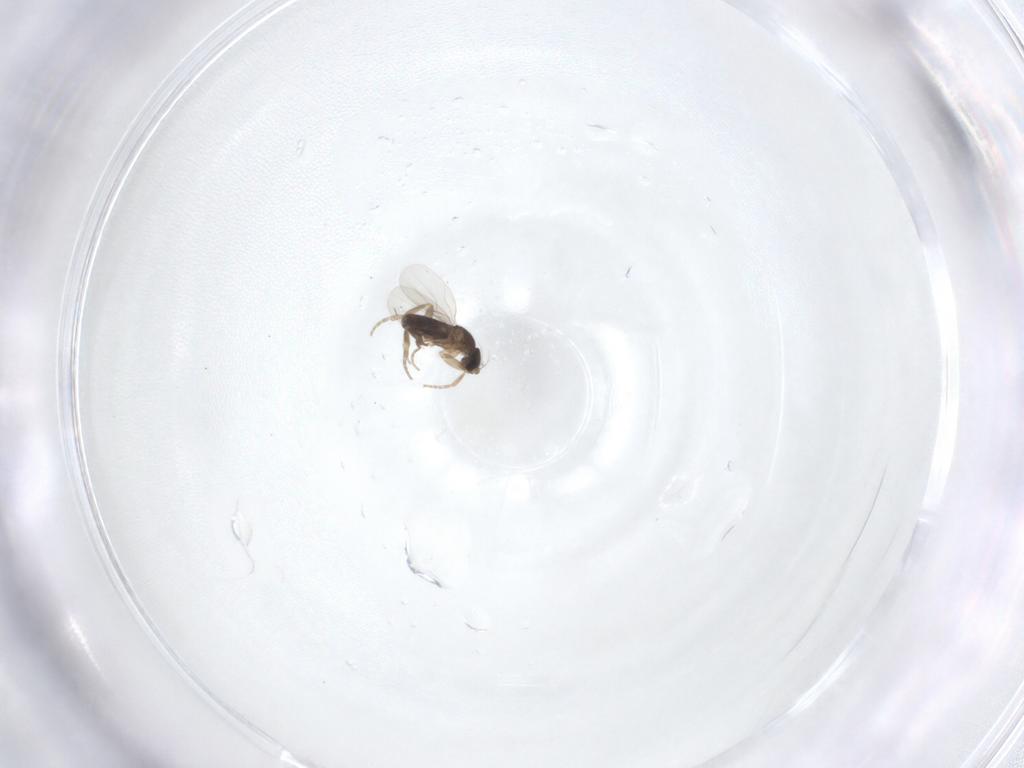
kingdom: Animalia
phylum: Arthropoda
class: Insecta
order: Diptera
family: Phoridae
